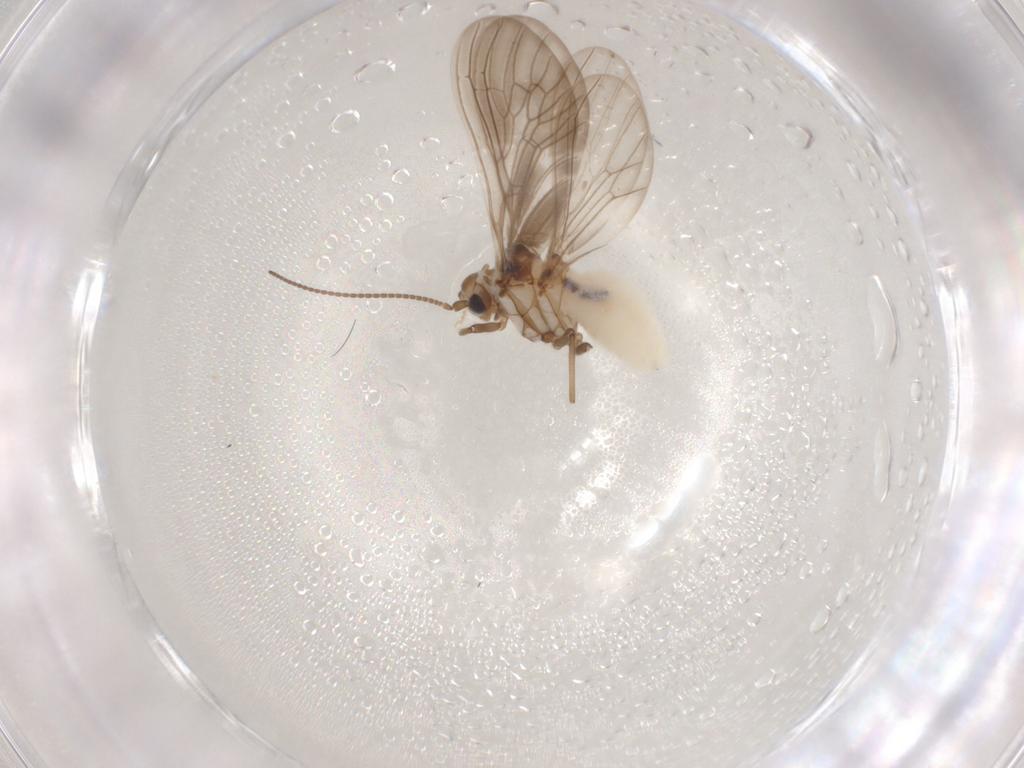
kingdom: Animalia
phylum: Arthropoda
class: Insecta
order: Neuroptera
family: Coniopterygidae
